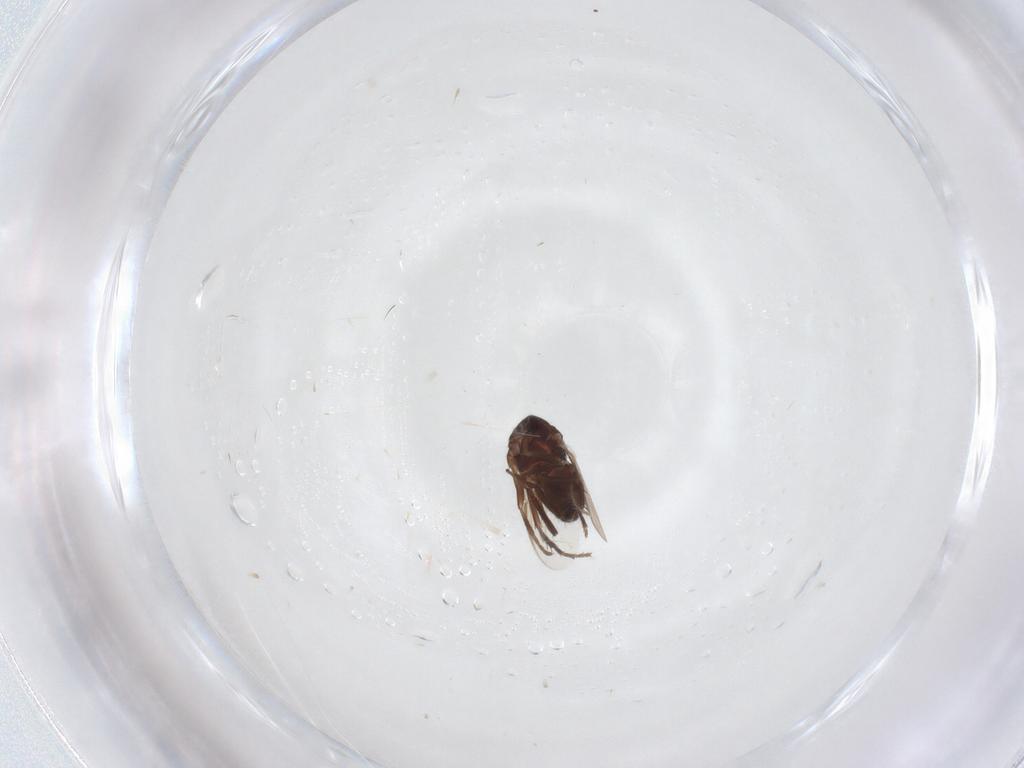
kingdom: Animalia
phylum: Arthropoda
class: Insecta
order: Diptera
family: Sphaeroceridae
